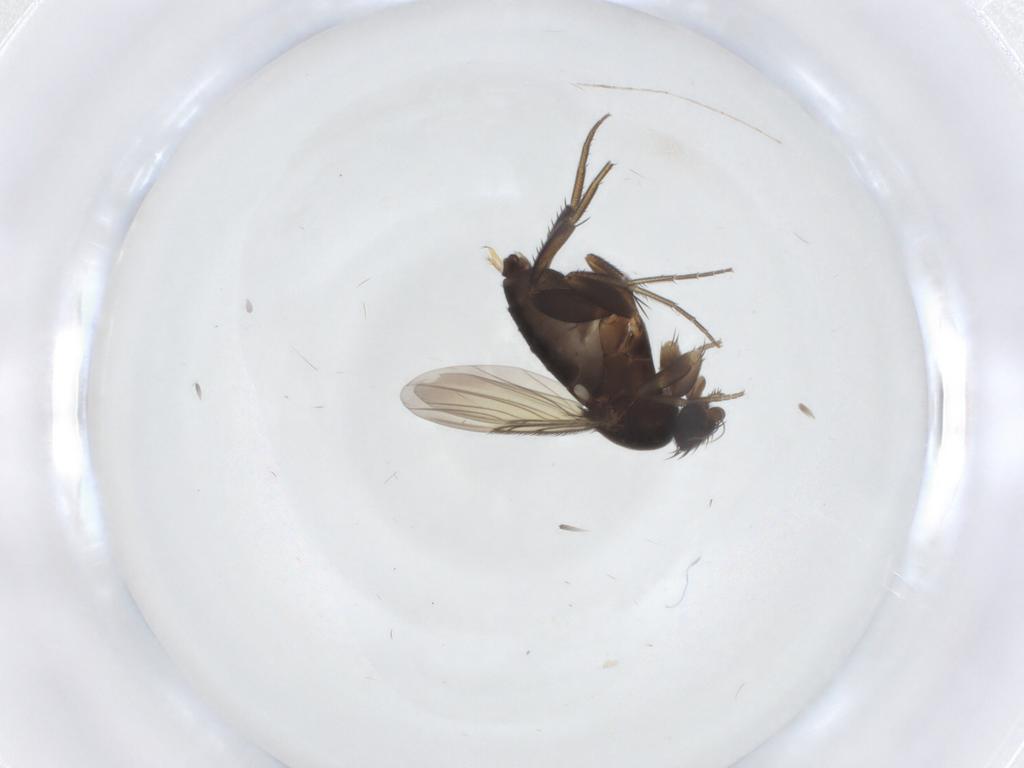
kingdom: Animalia
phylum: Arthropoda
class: Insecta
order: Diptera
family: Phoridae
